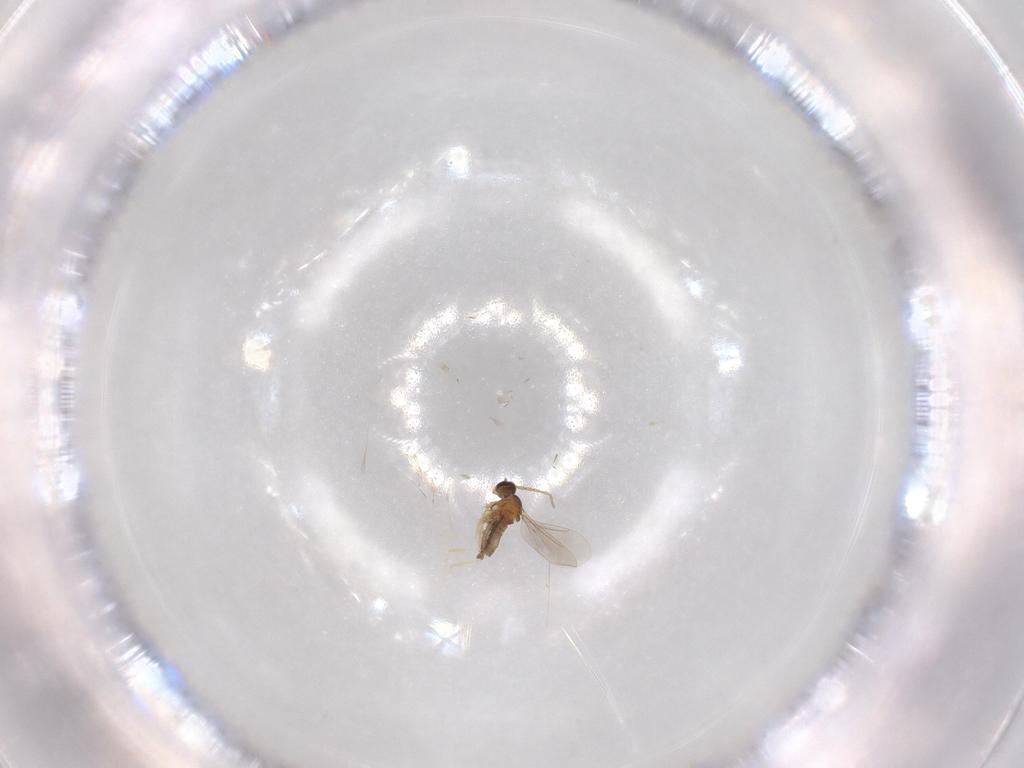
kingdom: Animalia
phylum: Arthropoda
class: Insecta
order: Diptera
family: Cecidomyiidae
